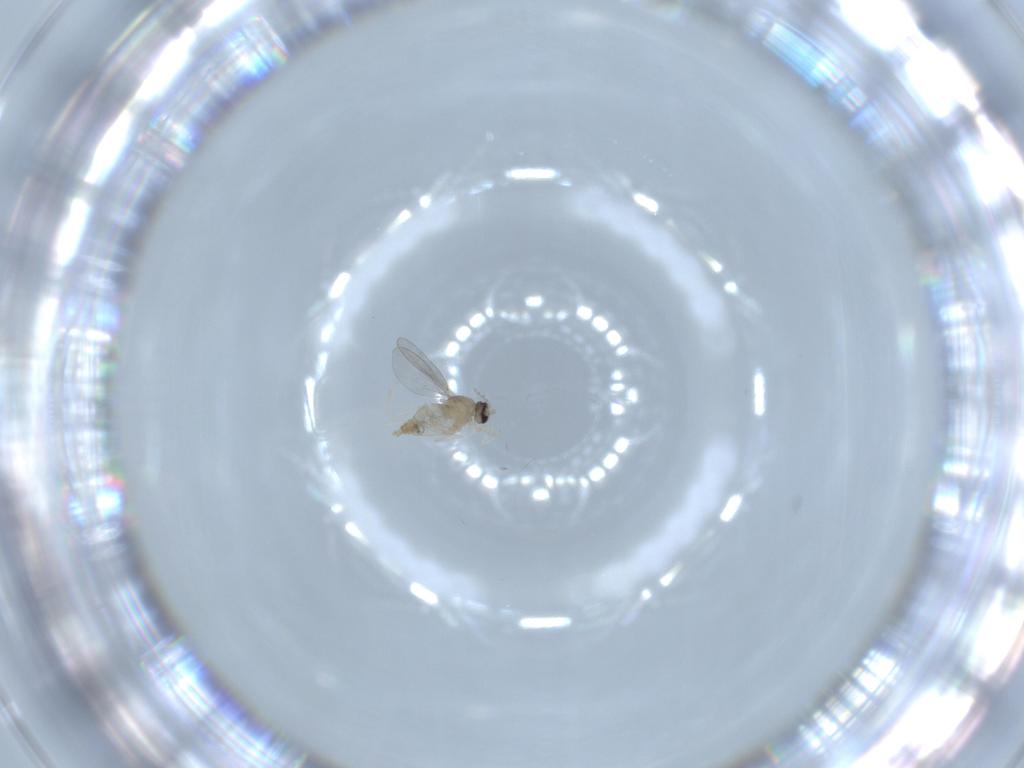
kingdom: Animalia
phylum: Arthropoda
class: Insecta
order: Diptera
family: Cecidomyiidae
